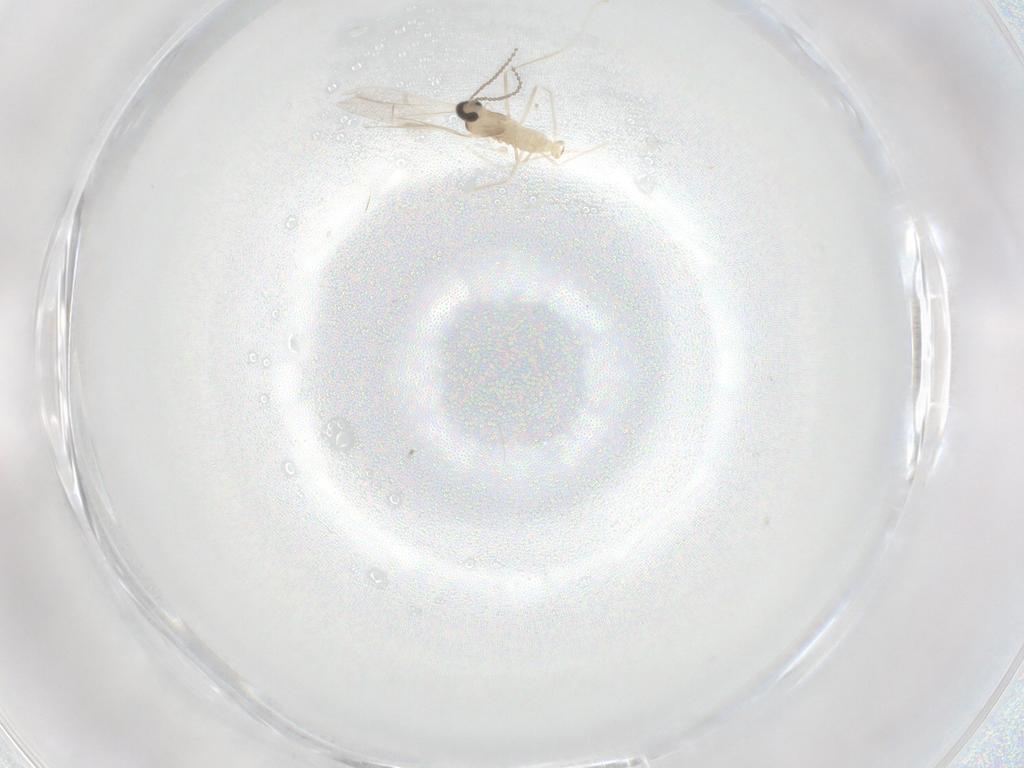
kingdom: Animalia
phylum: Arthropoda
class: Insecta
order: Diptera
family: Cecidomyiidae
